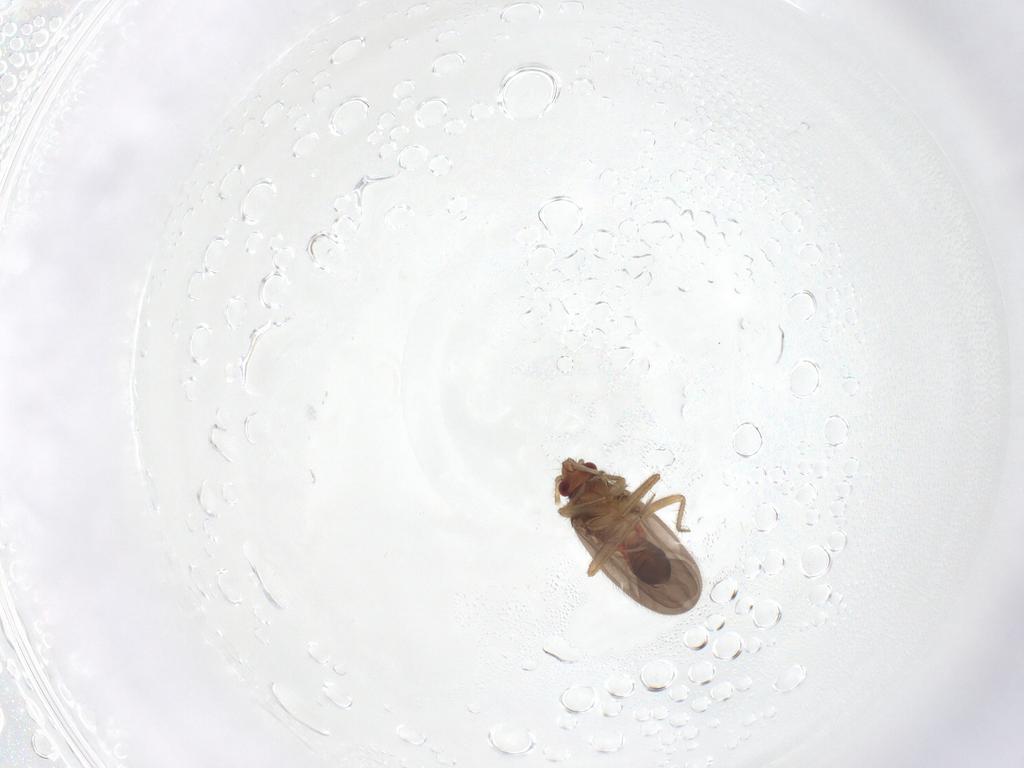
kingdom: Animalia
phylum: Arthropoda
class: Insecta
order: Hemiptera
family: Ceratocombidae
